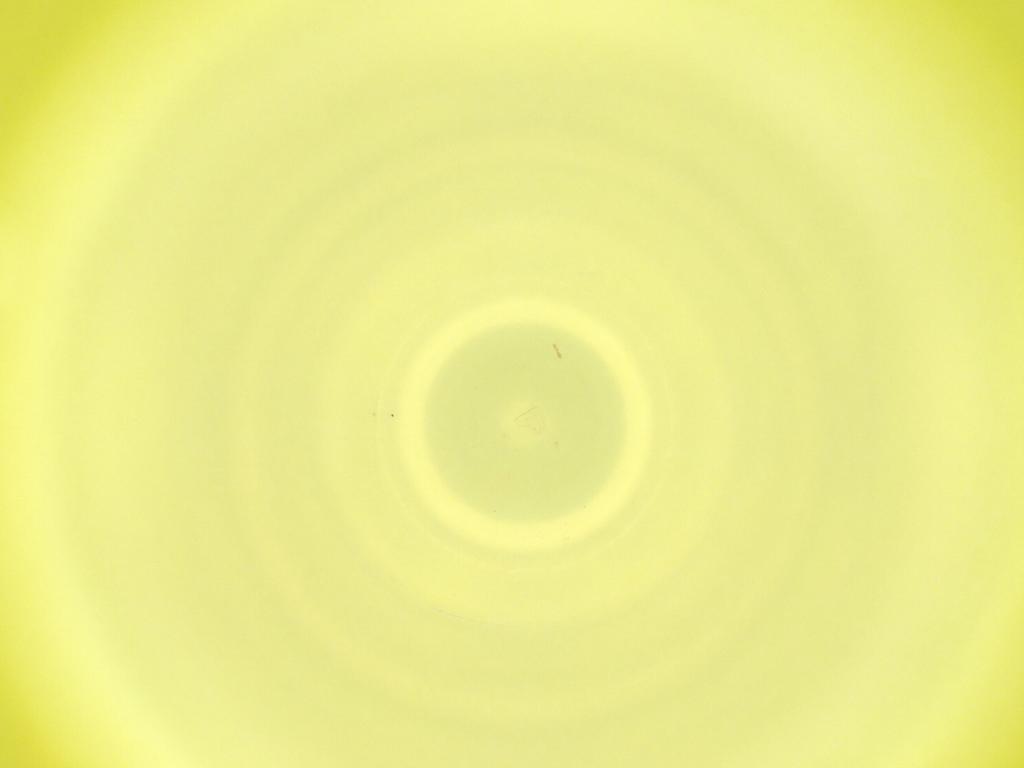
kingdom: Animalia
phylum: Arthropoda
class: Insecta
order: Diptera
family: Cecidomyiidae
